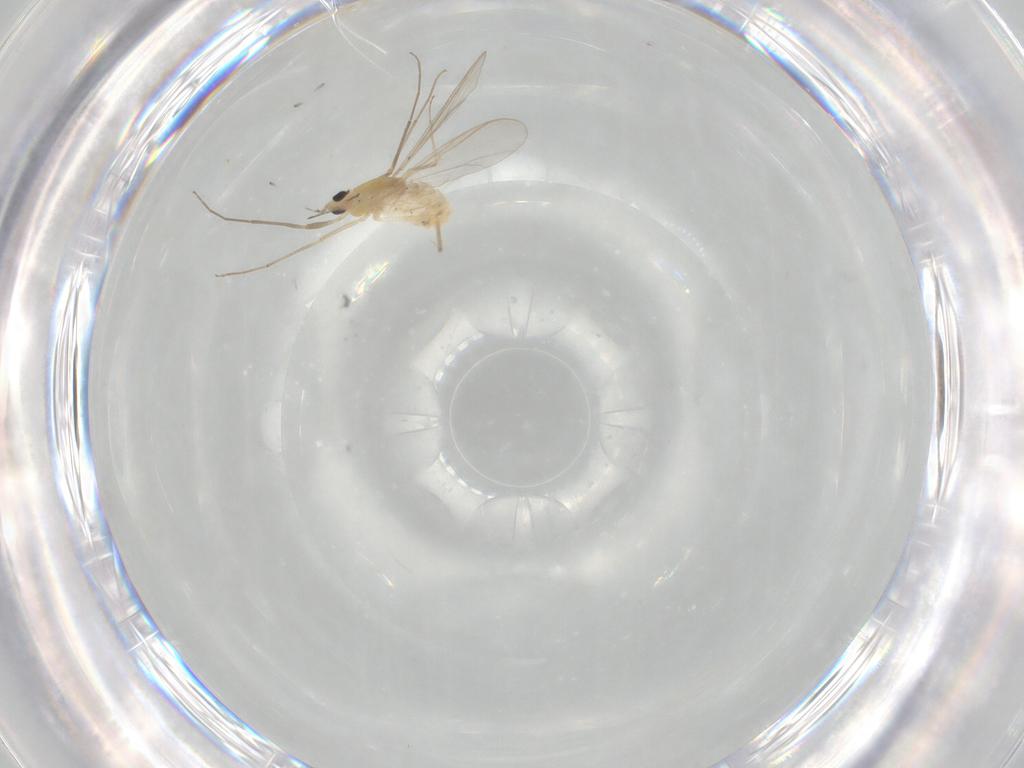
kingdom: Animalia
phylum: Arthropoda
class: Insecta
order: Diptera
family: Chironomidae
